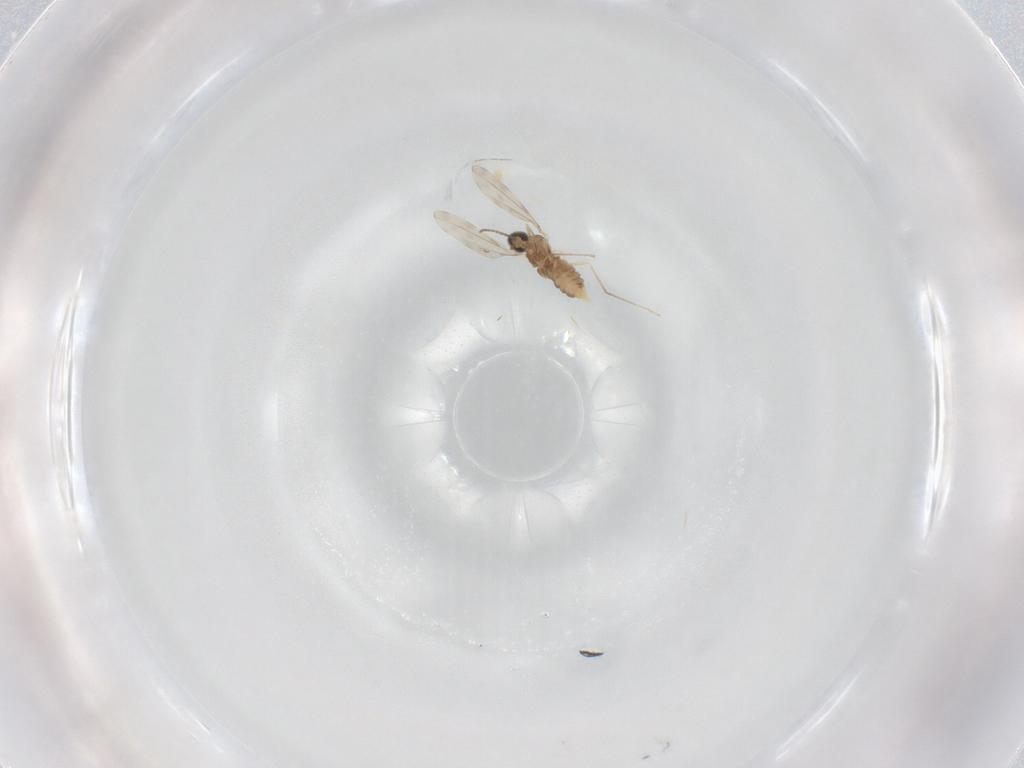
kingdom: Animalia
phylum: Arthropoda
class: Insecta
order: Diptera
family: Cecidomyiidae
